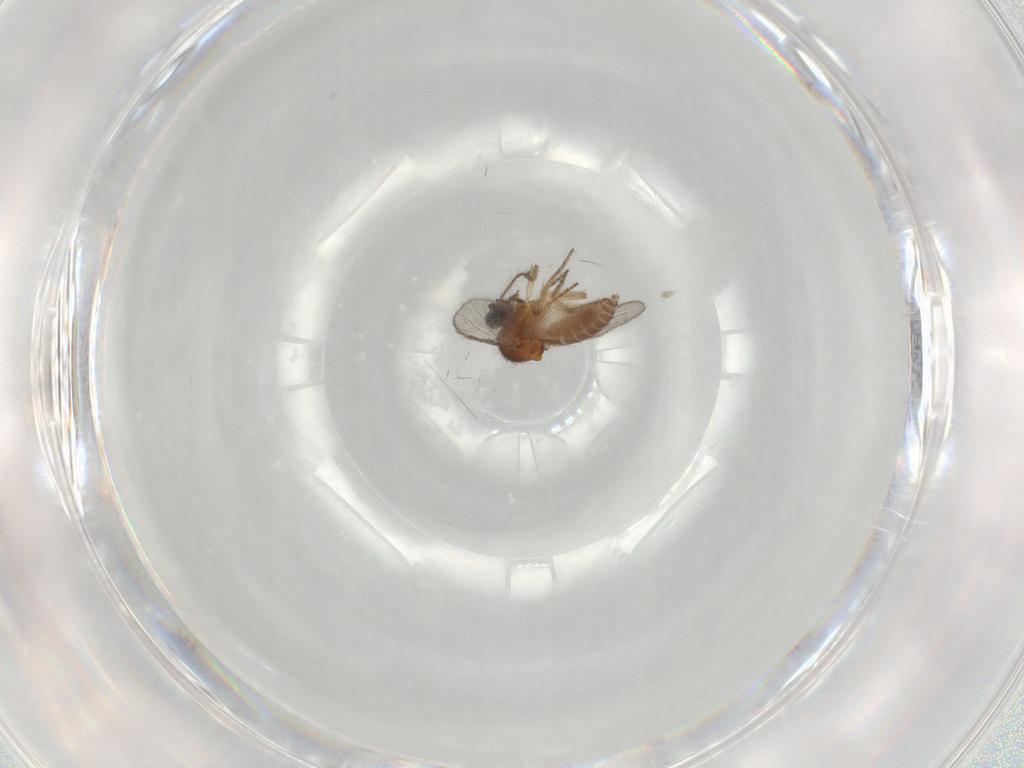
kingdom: Animalia
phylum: Arthropoda
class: Insecta
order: Diptera
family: Ceratopogonidae
